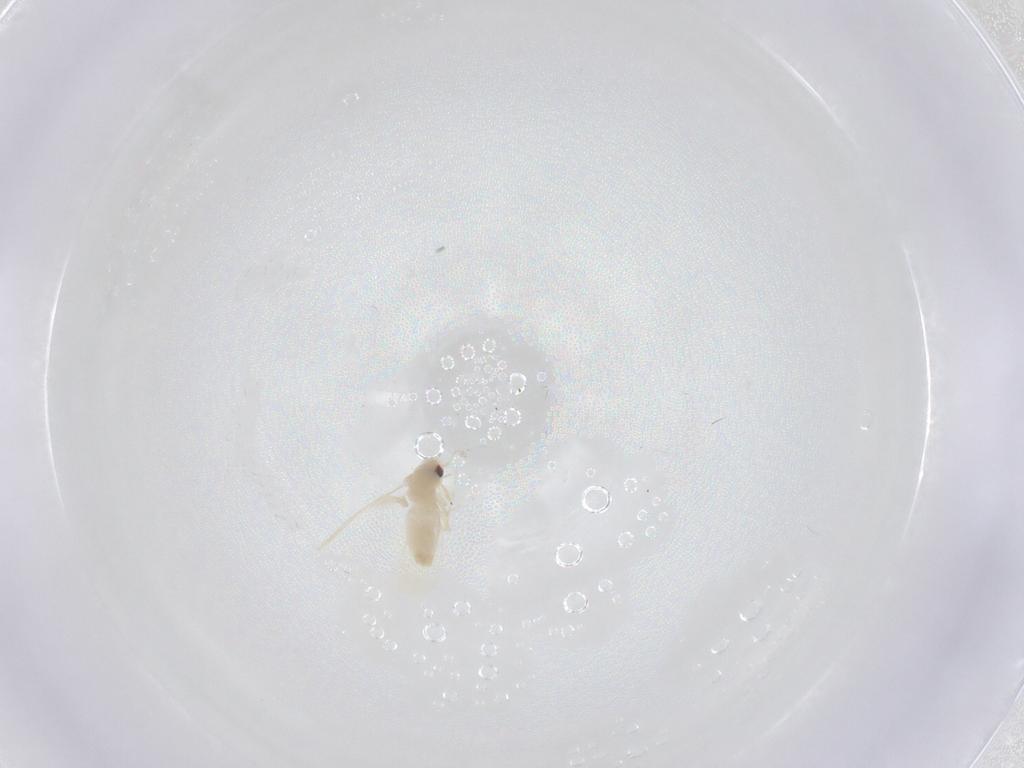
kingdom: Animalia
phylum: Arthropoda
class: Insecta
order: Hemiptera
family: Aleyrodidae
